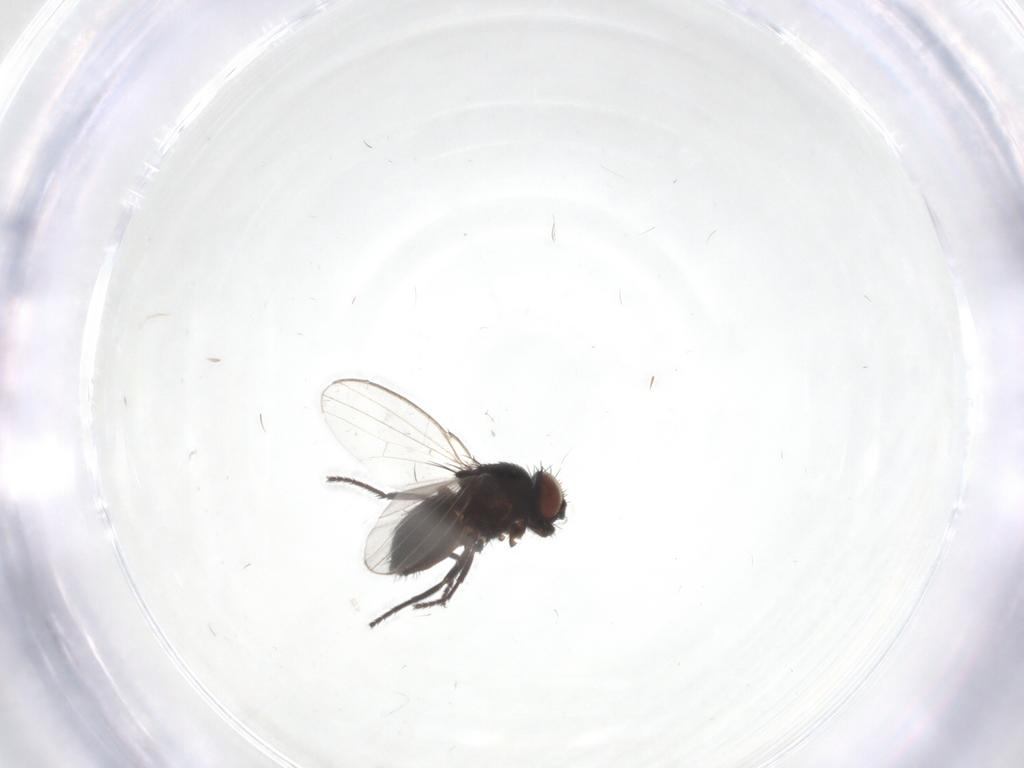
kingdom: Animalia
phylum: Arthropoda
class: Insecta
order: Diptera
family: Milichiidae
